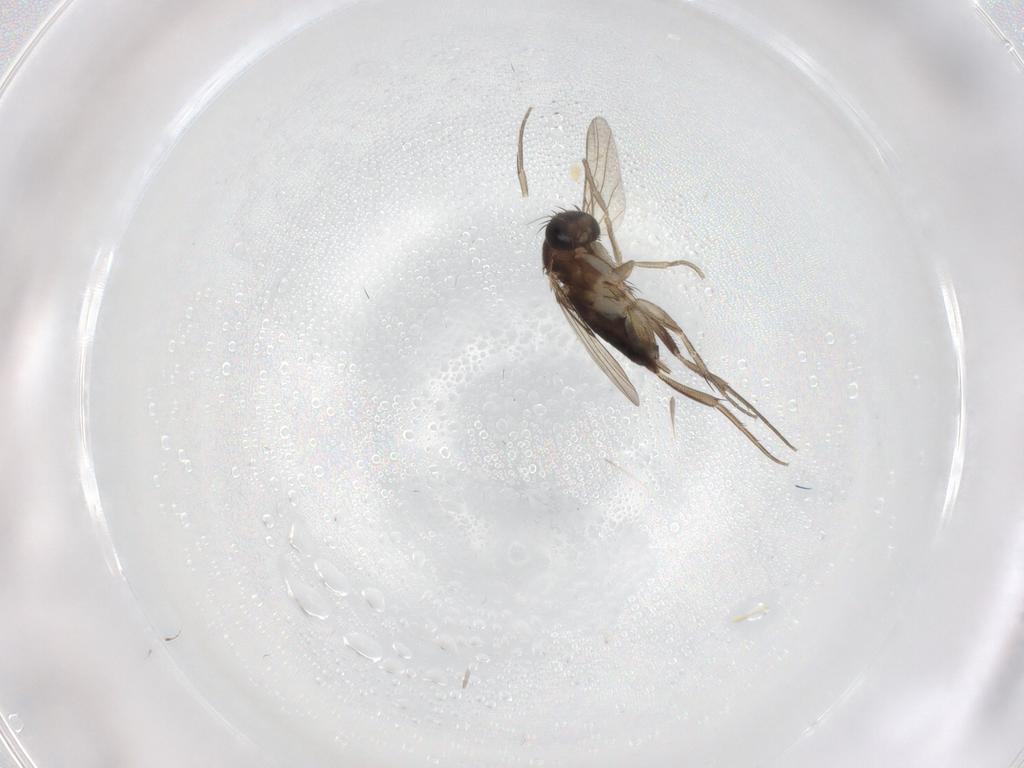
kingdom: Animalia
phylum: Arthropoda
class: Insecta
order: Diptera
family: Phoridae
